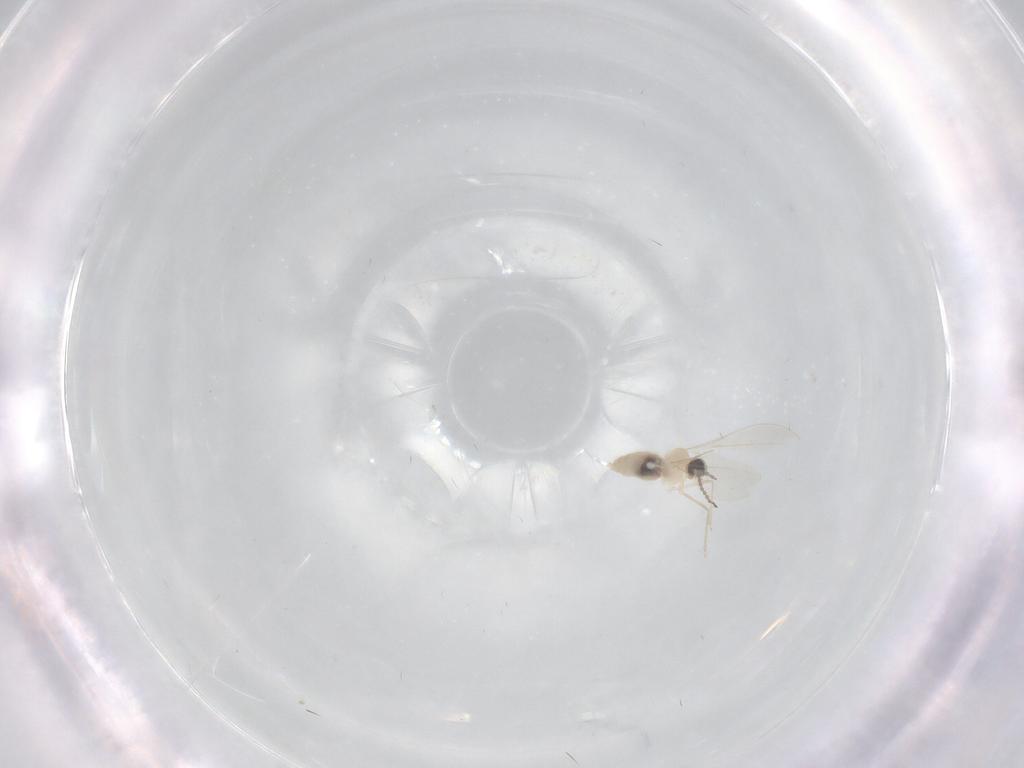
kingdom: Animalia
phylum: Arthropoda
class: Insecta
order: Diptera
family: Cecidomyiidae
